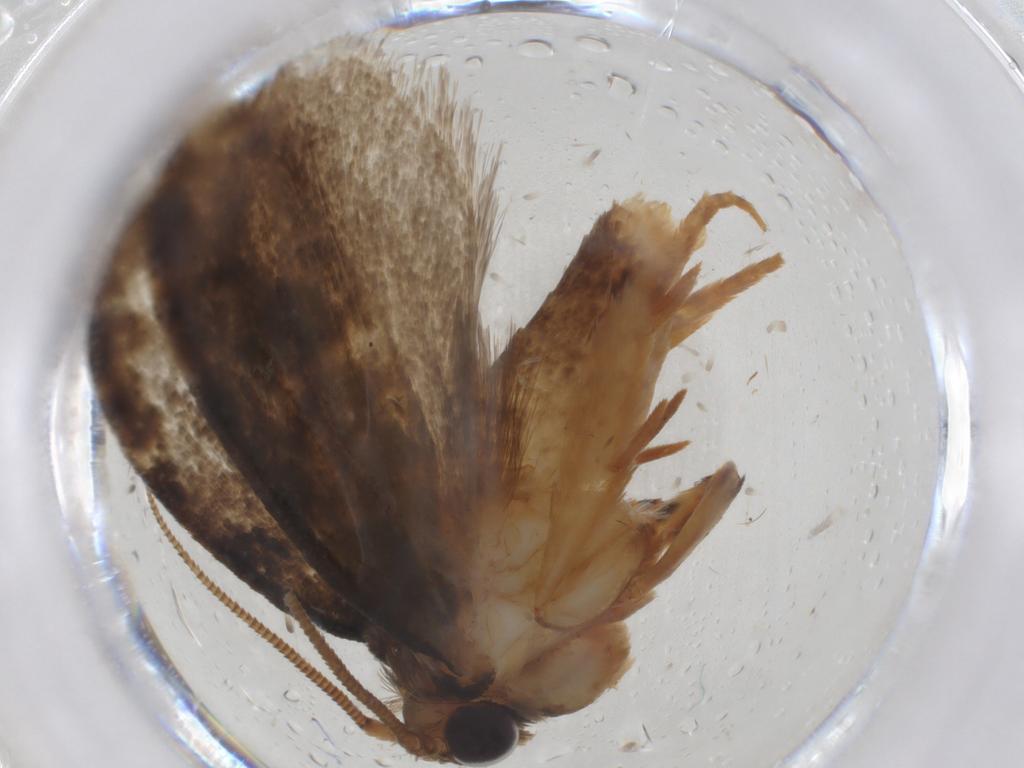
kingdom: Animalia
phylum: Arthropoda
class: Insecta
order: Lepidoptera
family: Nepticulidae
